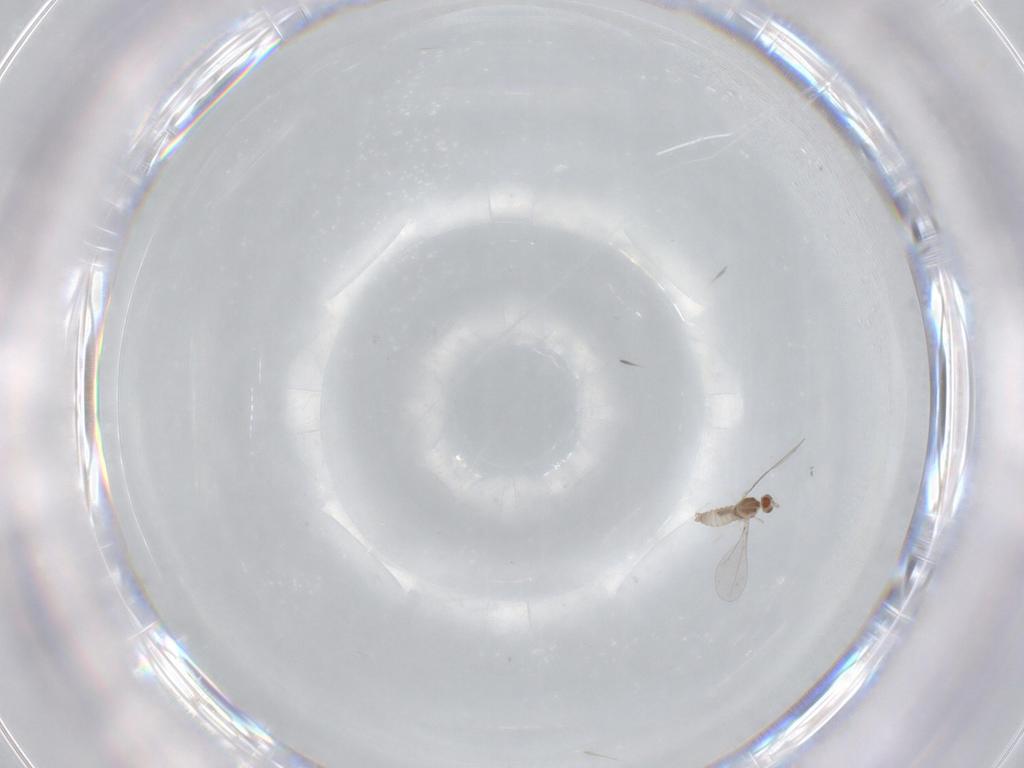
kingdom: Animalia
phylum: Arthropoda
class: Insecta
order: Diptera
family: Cecidomyiidae
